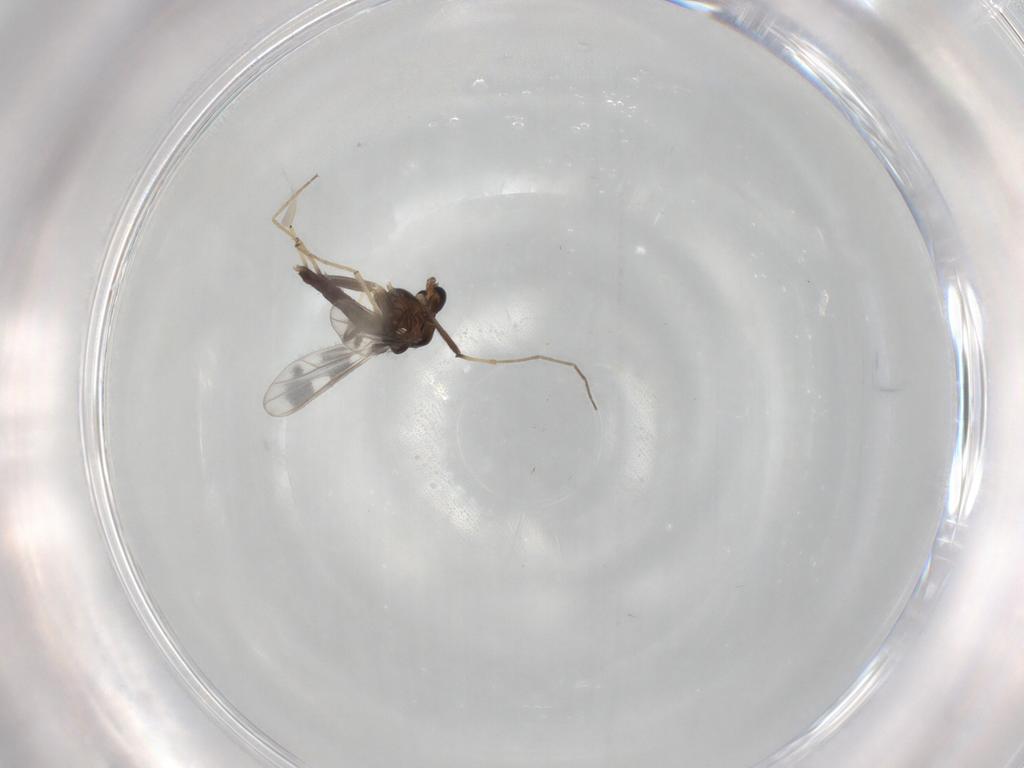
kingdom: Animalia
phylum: Arthropoda
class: Insecta
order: Diptera
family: Chironomidae
